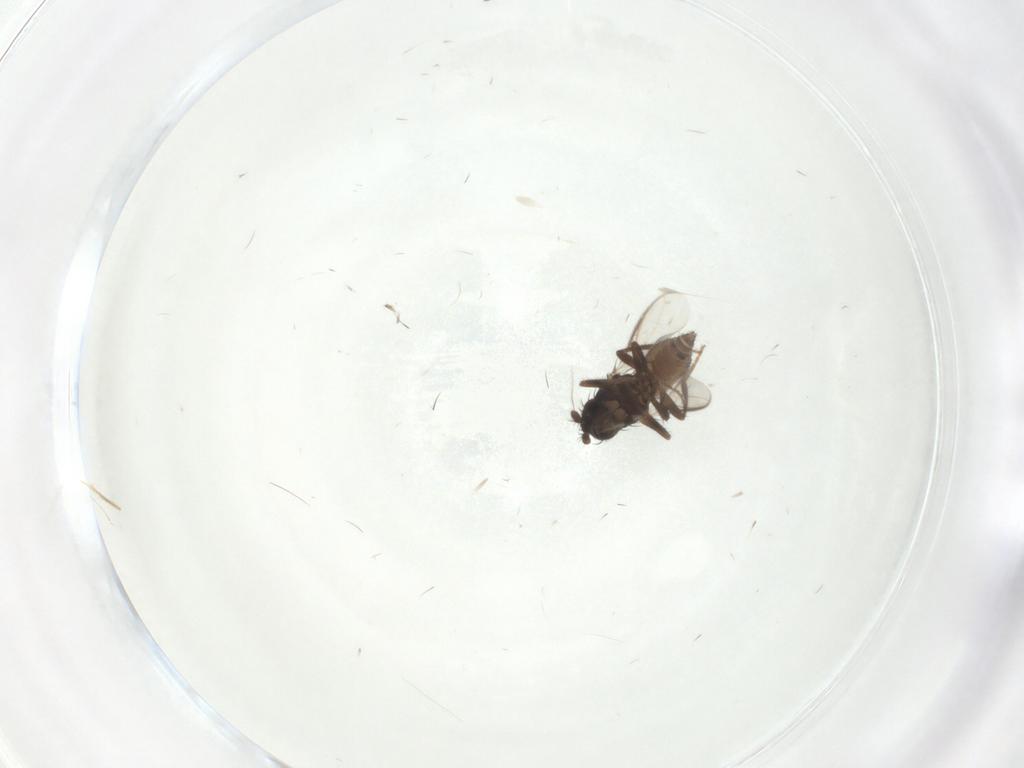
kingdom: Animalia
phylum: Arthropoda
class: Insecta
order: Diptera
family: Cecidomyiidae
